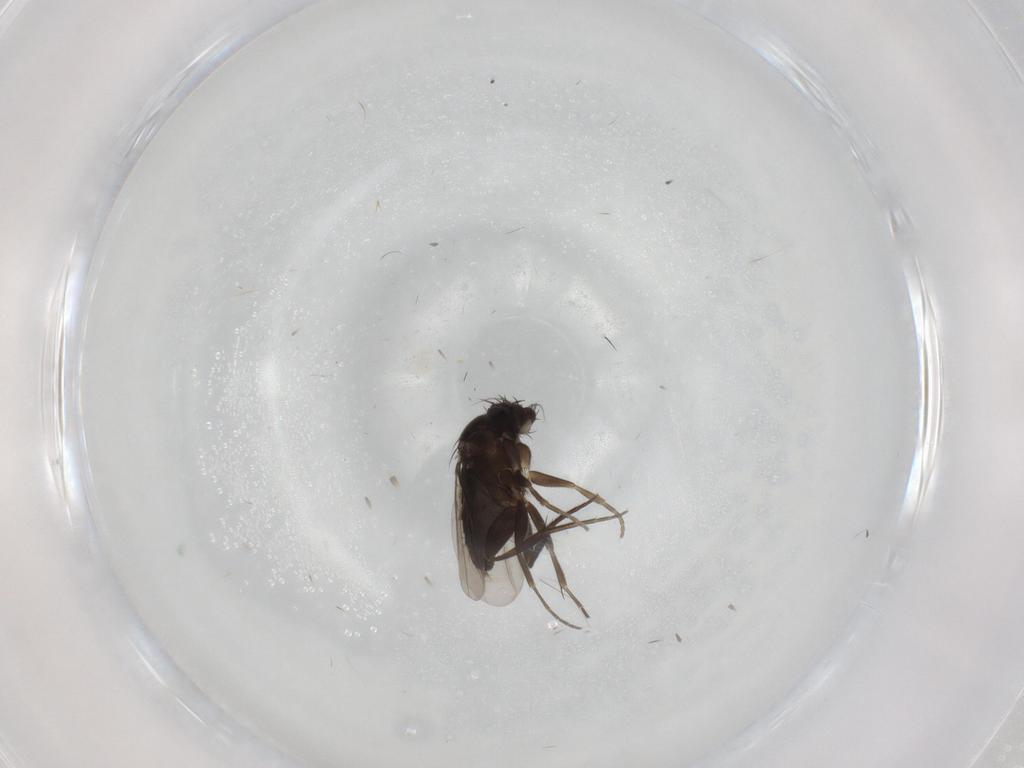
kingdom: Animalia
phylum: Arthropoda
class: Insecta
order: Diptera
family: Phoridae
